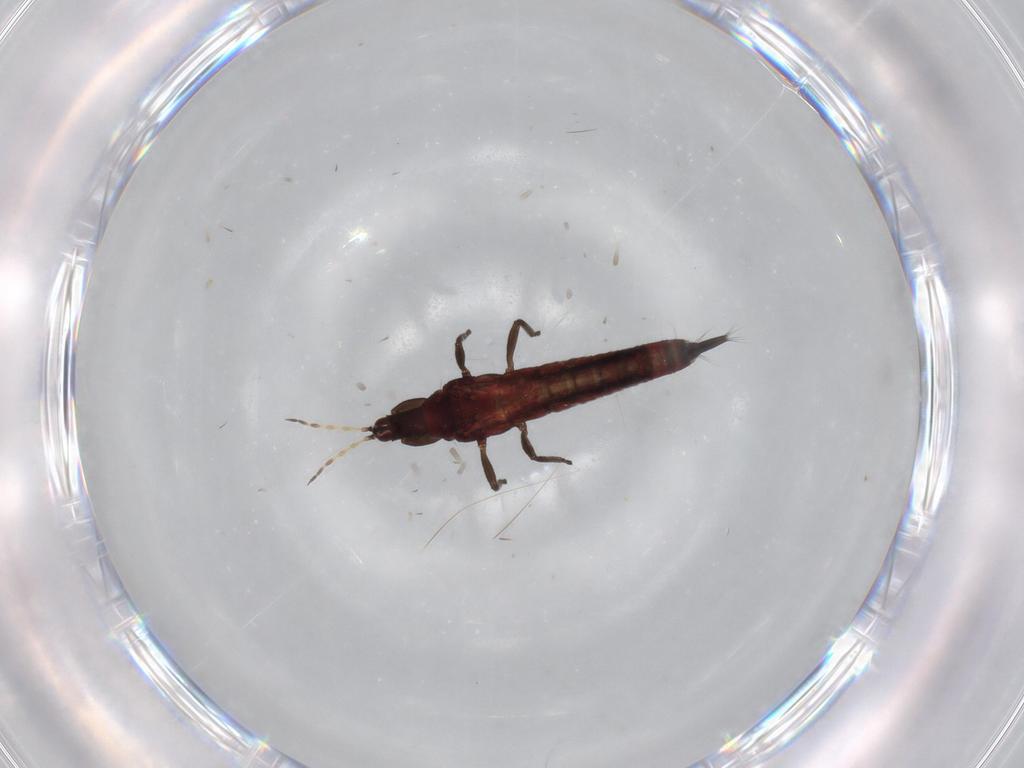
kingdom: Animalia
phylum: Arthropoda
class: Insecta
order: Thysanoptera
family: Phlaeothripidae
